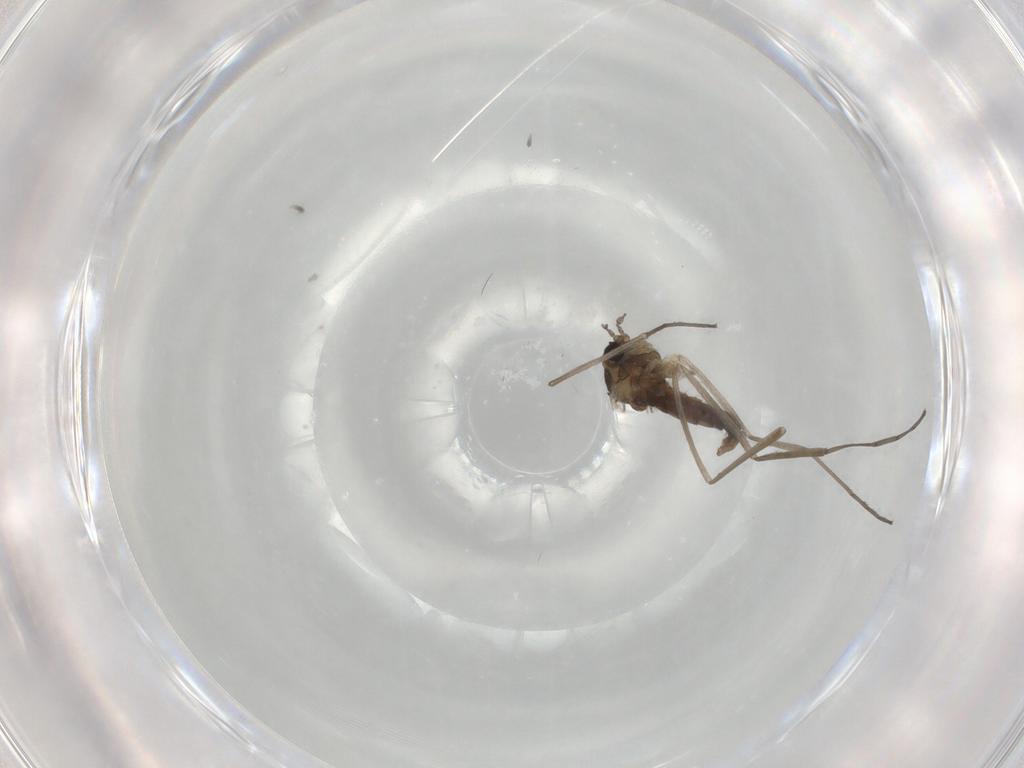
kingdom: Animalia
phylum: Arthropoda
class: Insecta
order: Diptera
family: Cecidomyiidae
